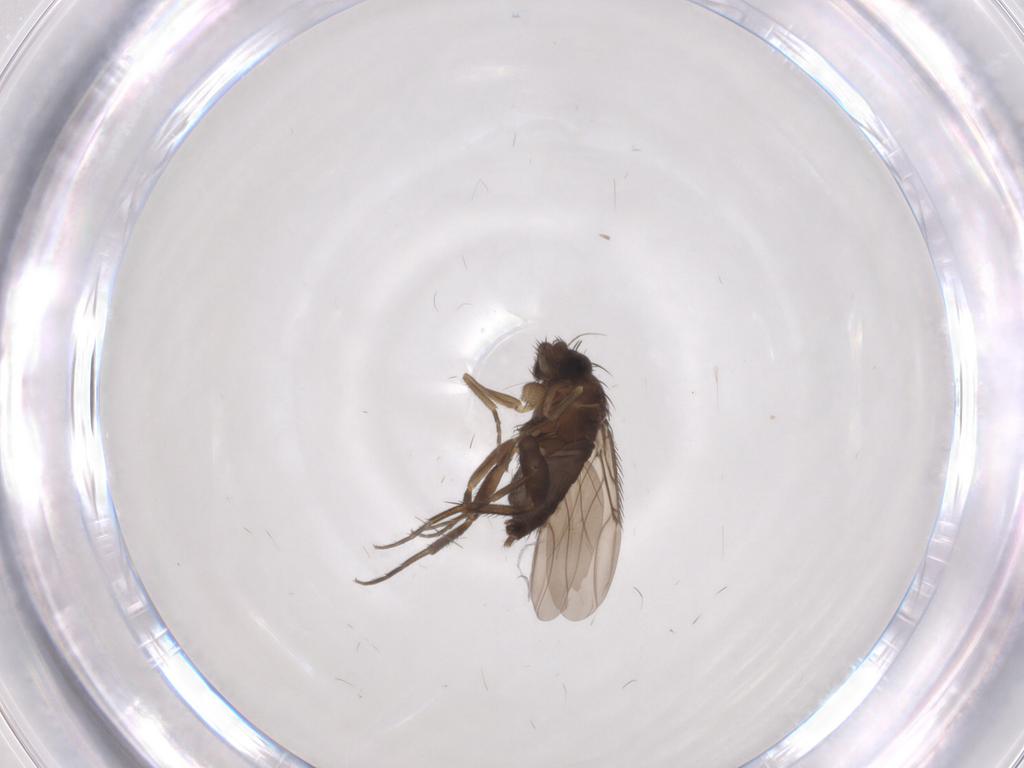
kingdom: Animalia
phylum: Arthropoda
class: Insecta
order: Diptera
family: Phoridae
